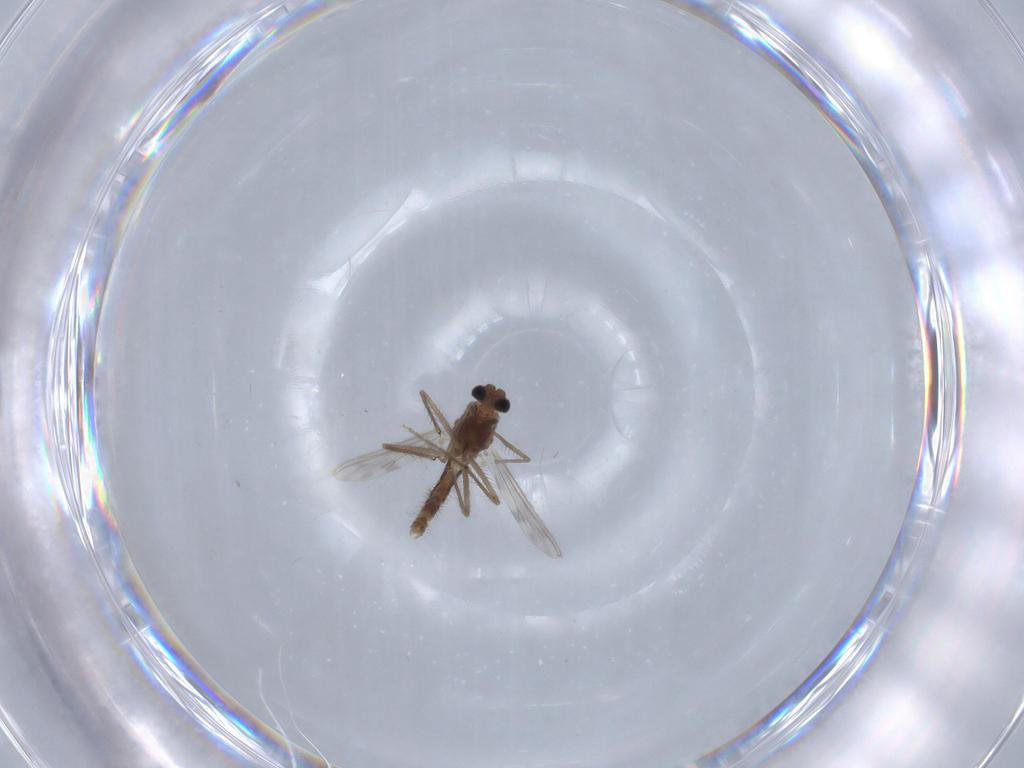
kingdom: Animalia
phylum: Arthropoda
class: Insecta
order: Diptera
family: Chironomidae
